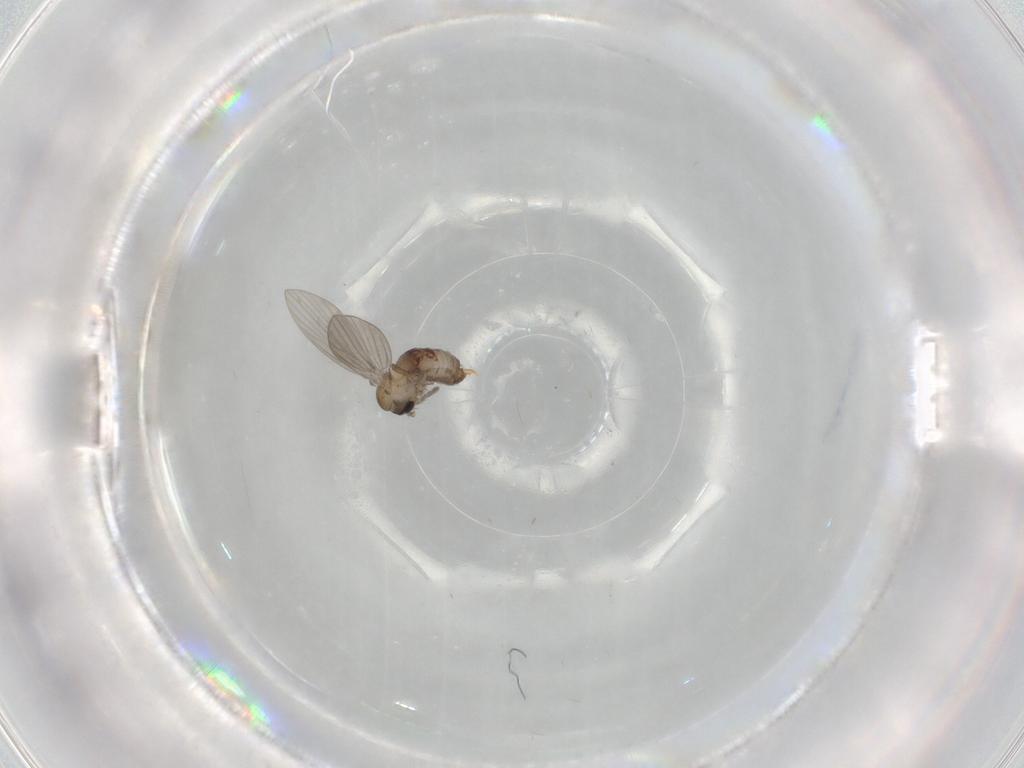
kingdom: Animalia
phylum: Arthropoda
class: Insecta
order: Diptera
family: Psychodidae
